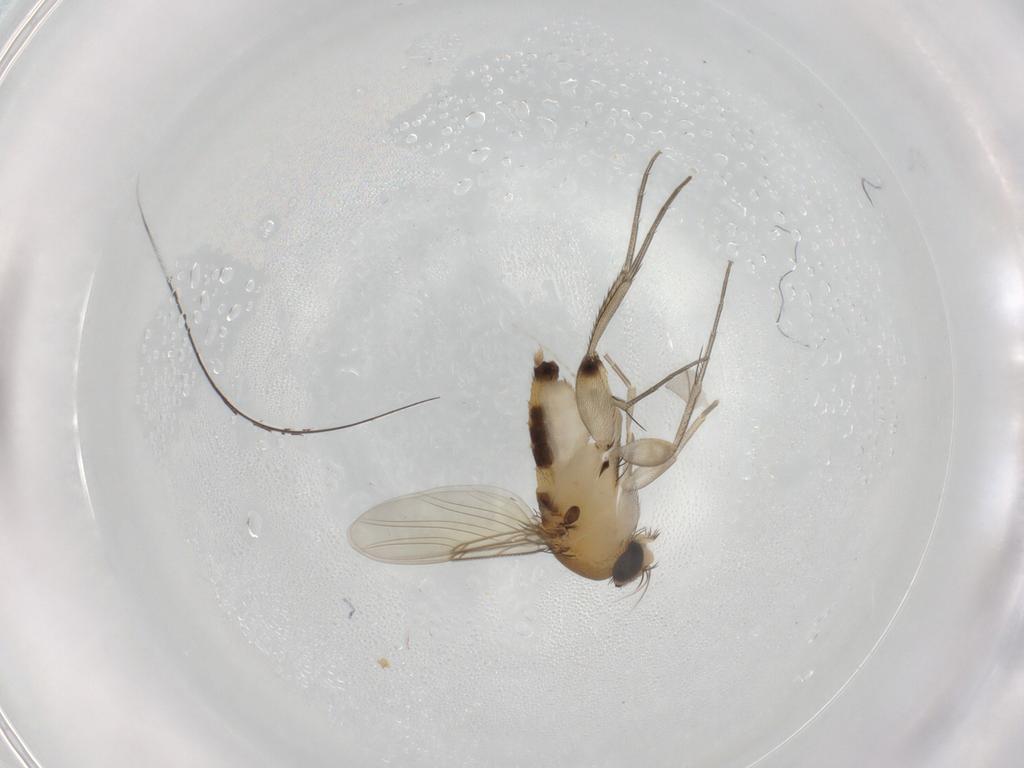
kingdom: Animalia
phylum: Arthropoda
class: Insecta
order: Diptera
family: Phoridae
